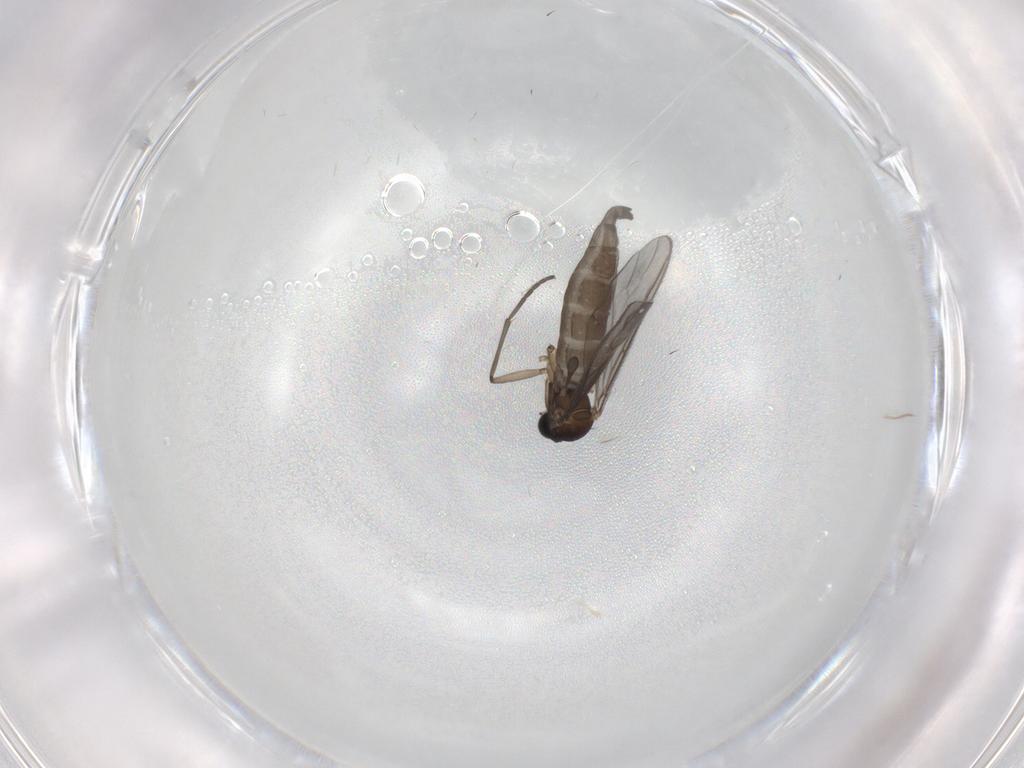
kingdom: Animalia
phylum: Arthropoda
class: Insecta
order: Diptera
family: Sciaridae
